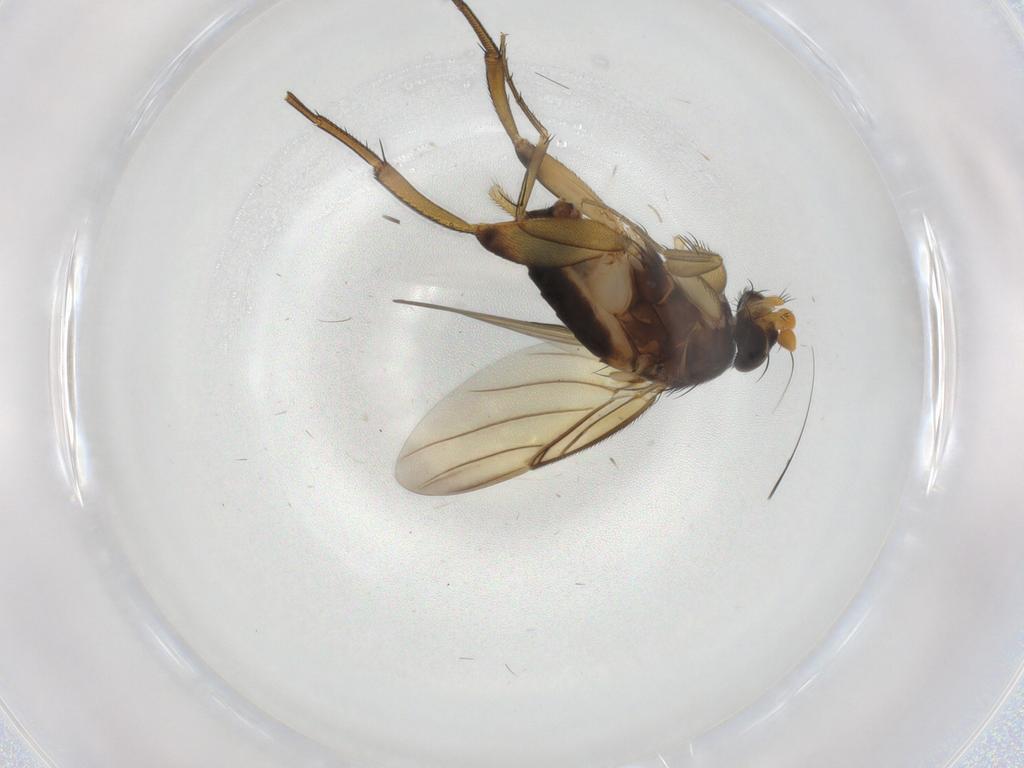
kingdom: Animalia
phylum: Arthropoda
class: Insecta
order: Diptera
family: Phoridae
